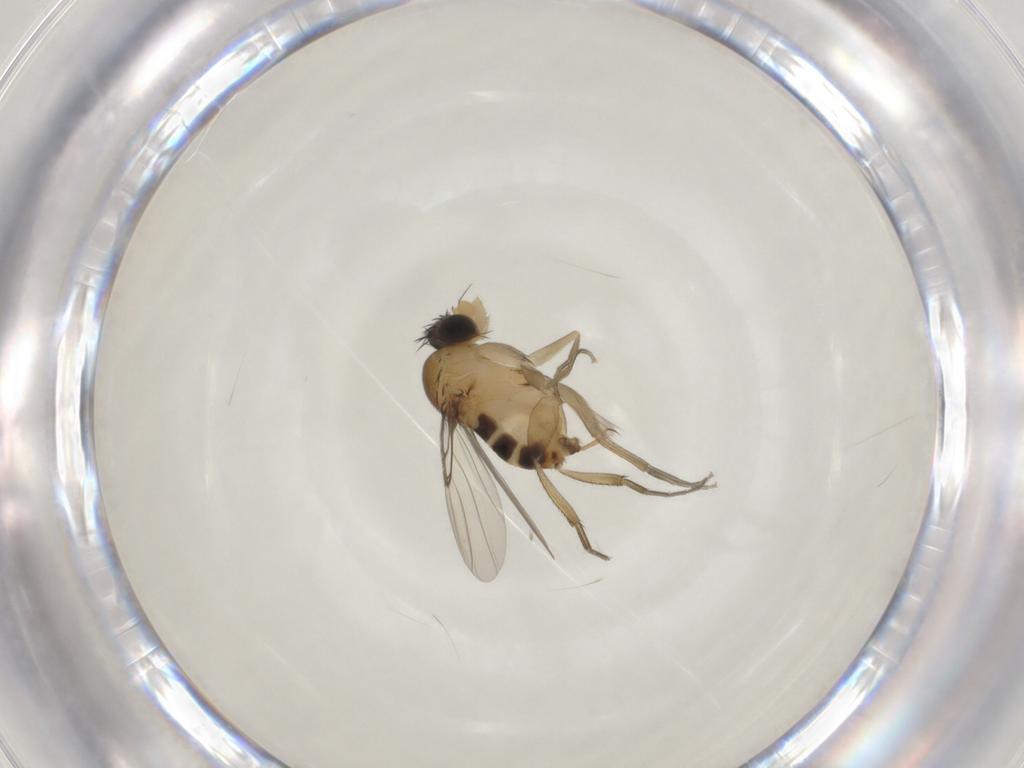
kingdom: Animalia
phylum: Arthropoda
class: Insecta
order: Diptera
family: Phoridae
